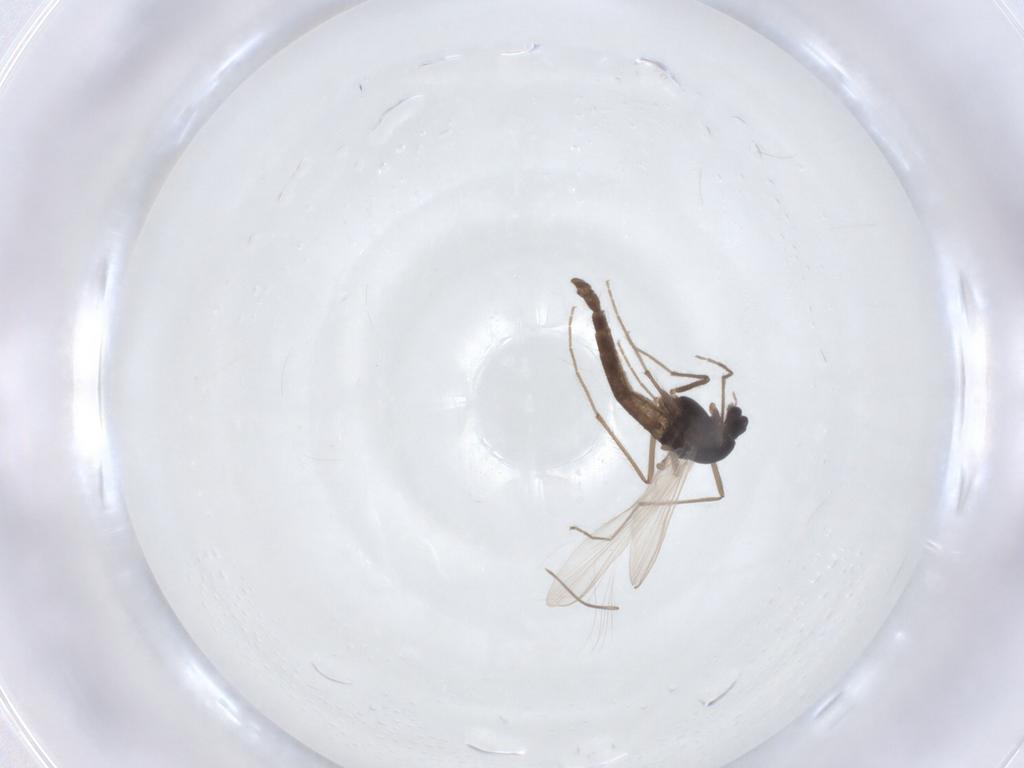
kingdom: Animalia
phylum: Arthropoda
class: Insecta
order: Diptera
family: Chironomidae
